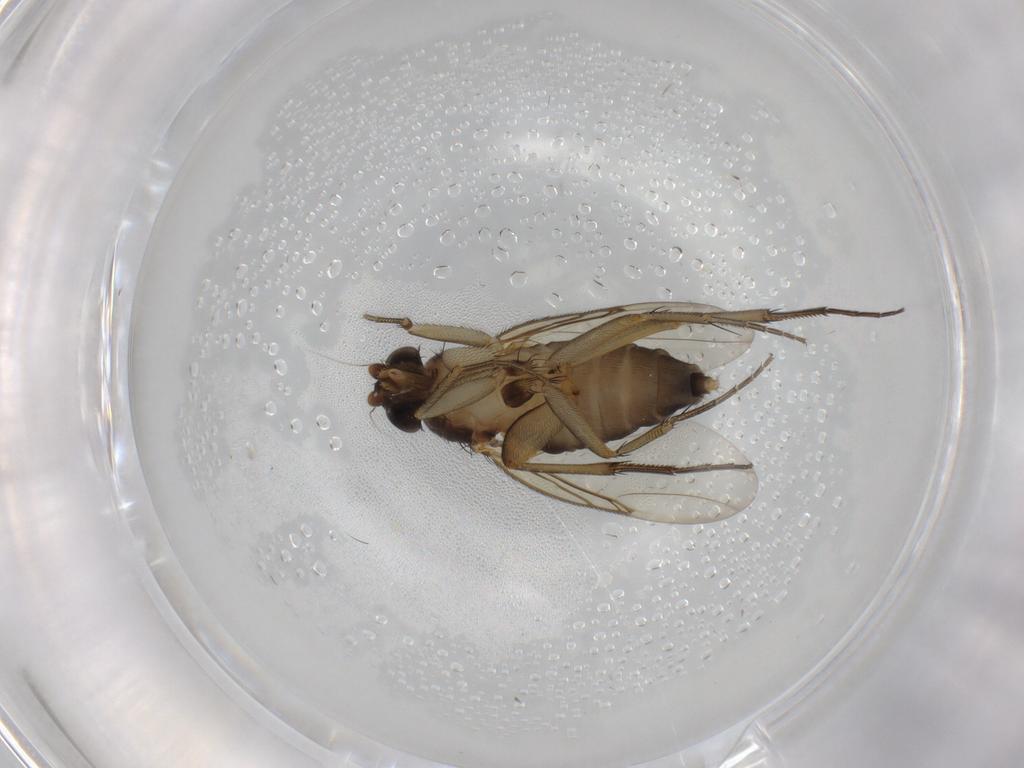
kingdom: Animalia
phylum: Arthropoda
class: Insecta
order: Diptera
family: Phoridae
